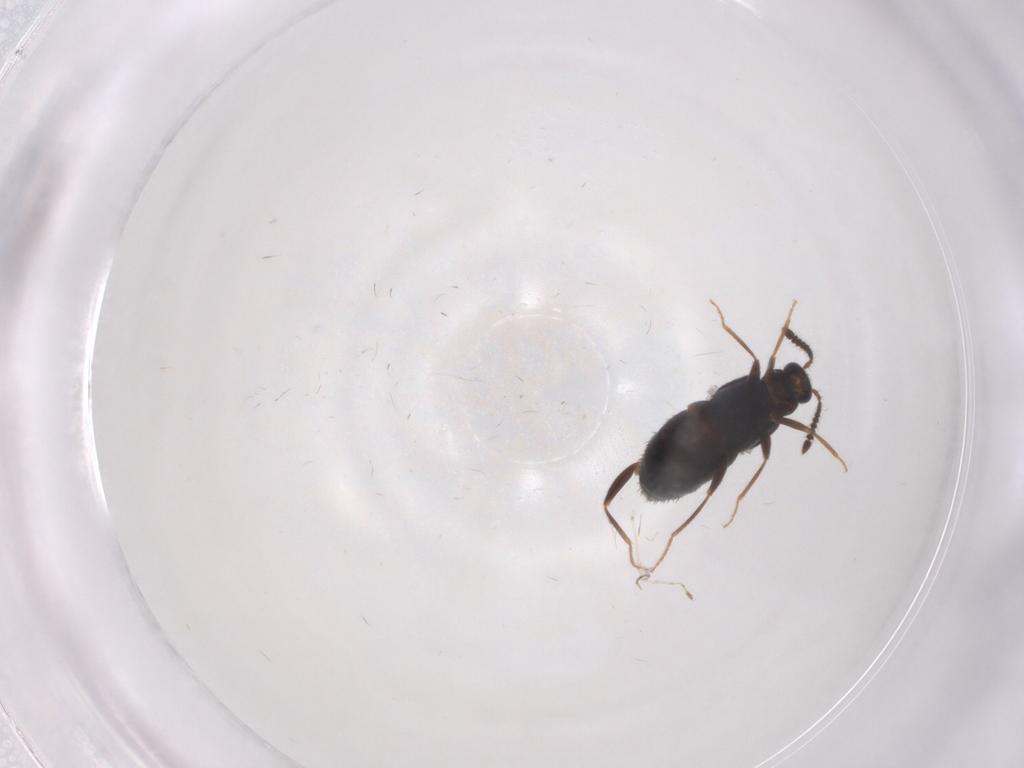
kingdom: Animalia
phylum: Arthropoda
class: Insecta
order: Coleoptera
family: Staphylinidae
